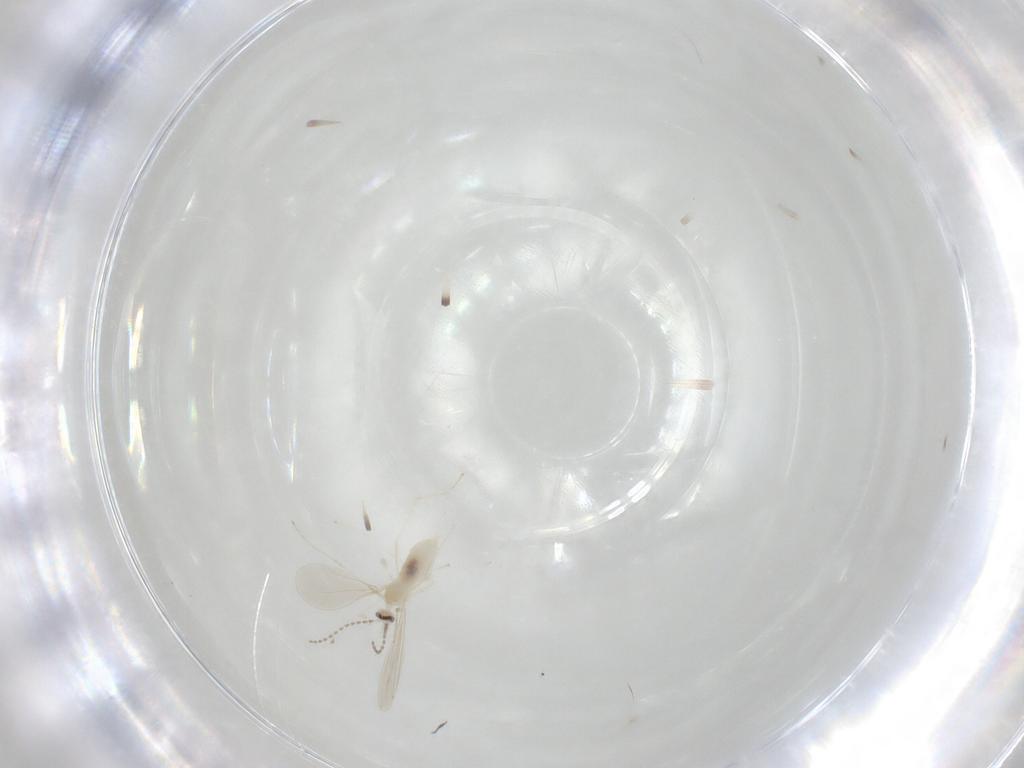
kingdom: Animalia
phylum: Arthropoda
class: Insecta
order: Diptera
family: Cecidomyiidae
